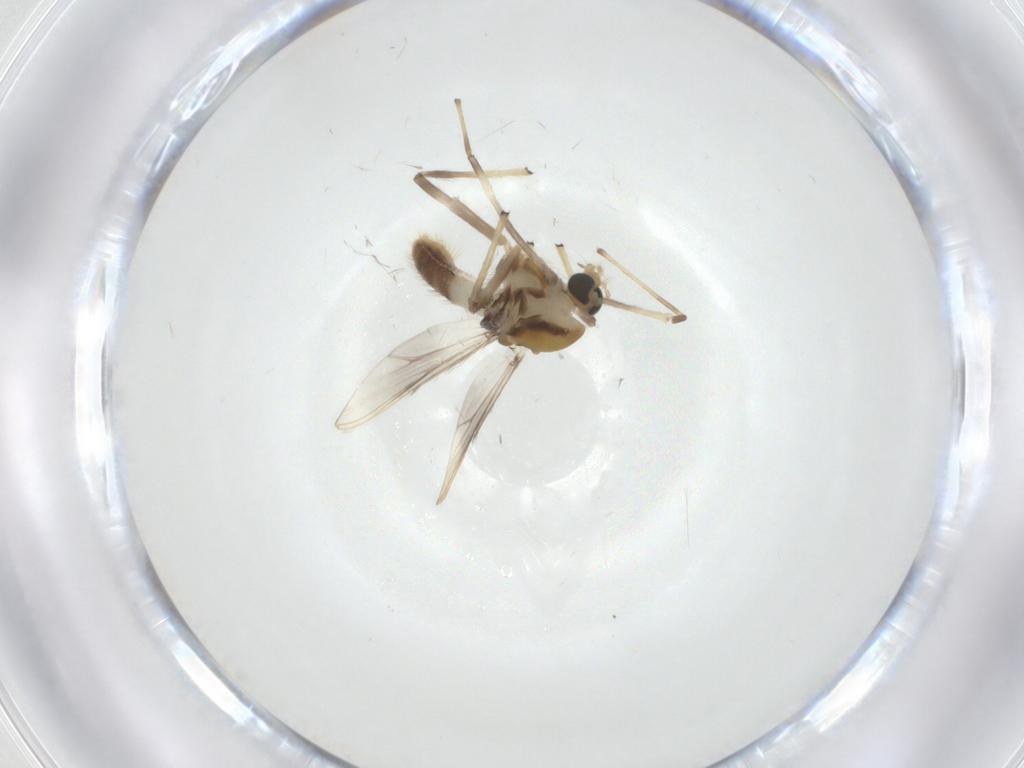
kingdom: Animalia
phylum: Arthropoda
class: Insecta
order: Diptera
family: Chironomidae
